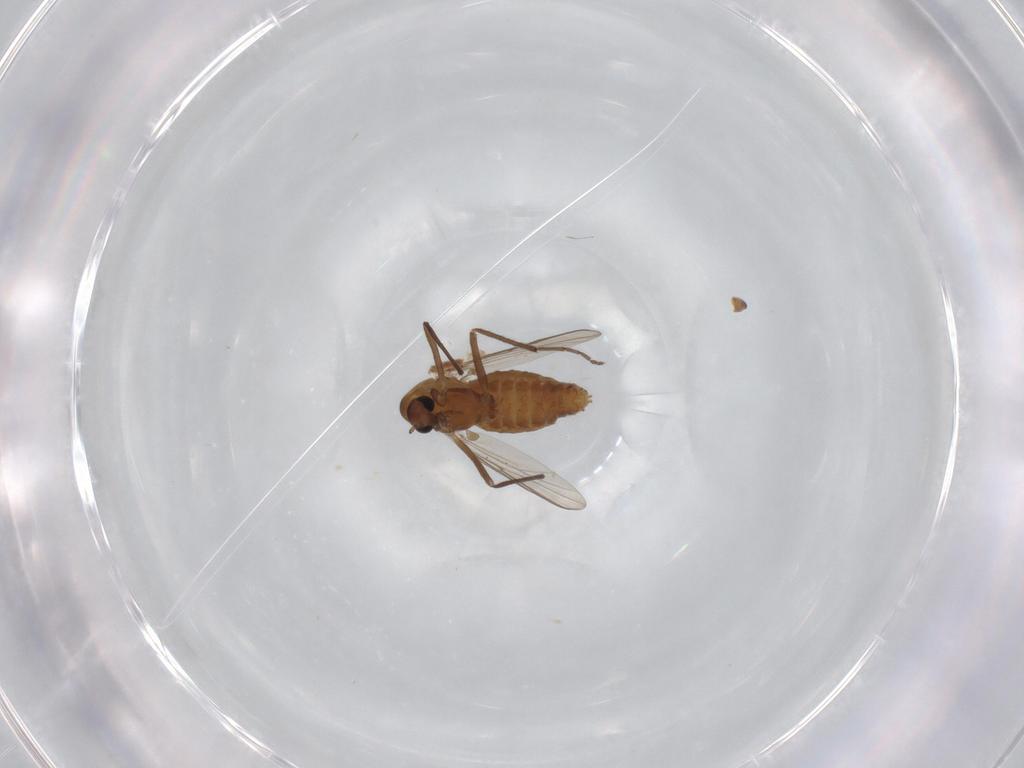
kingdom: Animalia
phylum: Arthropoda
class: Insecta
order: Diptera
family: Chironomidae
